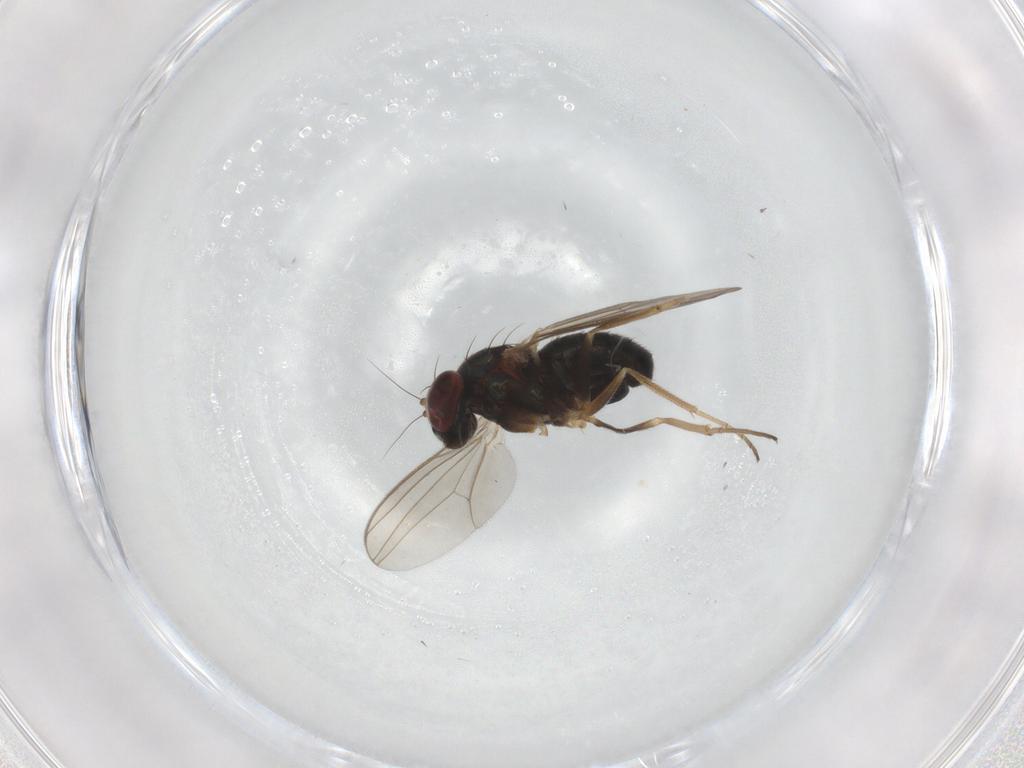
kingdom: Animalia
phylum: Arthropoda
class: Insecta
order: Diptera
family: Dolichopodidae
